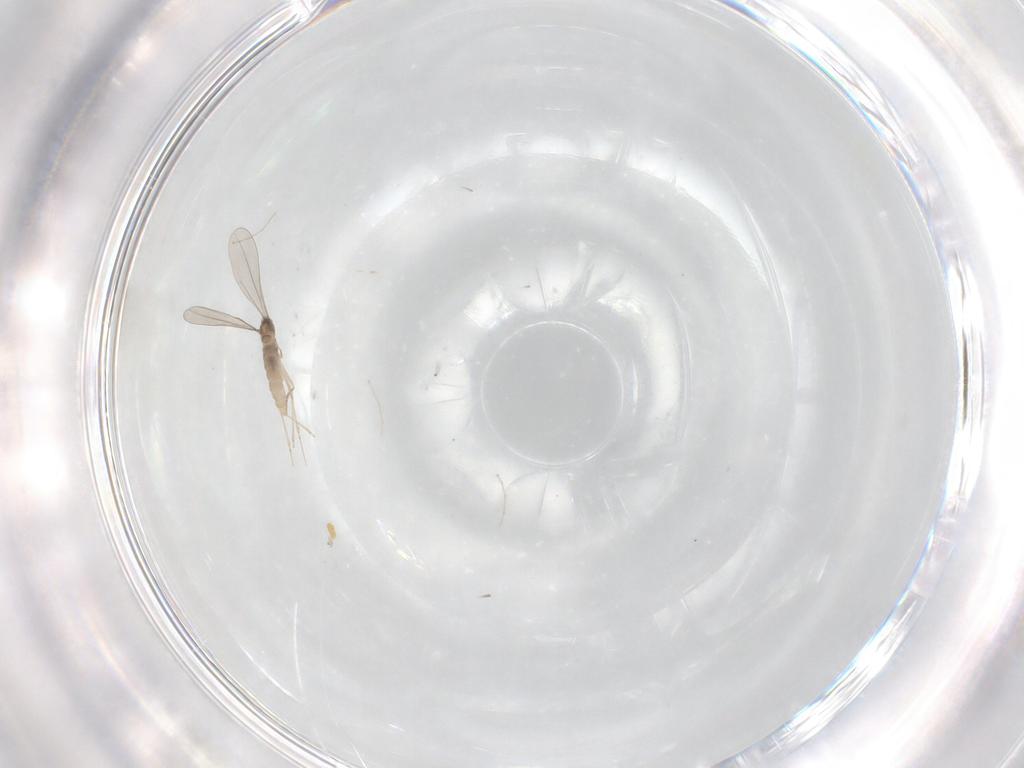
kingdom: Animalia
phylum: Arthropoda
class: Insecta
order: Diptera
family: Cecidomyiidae
